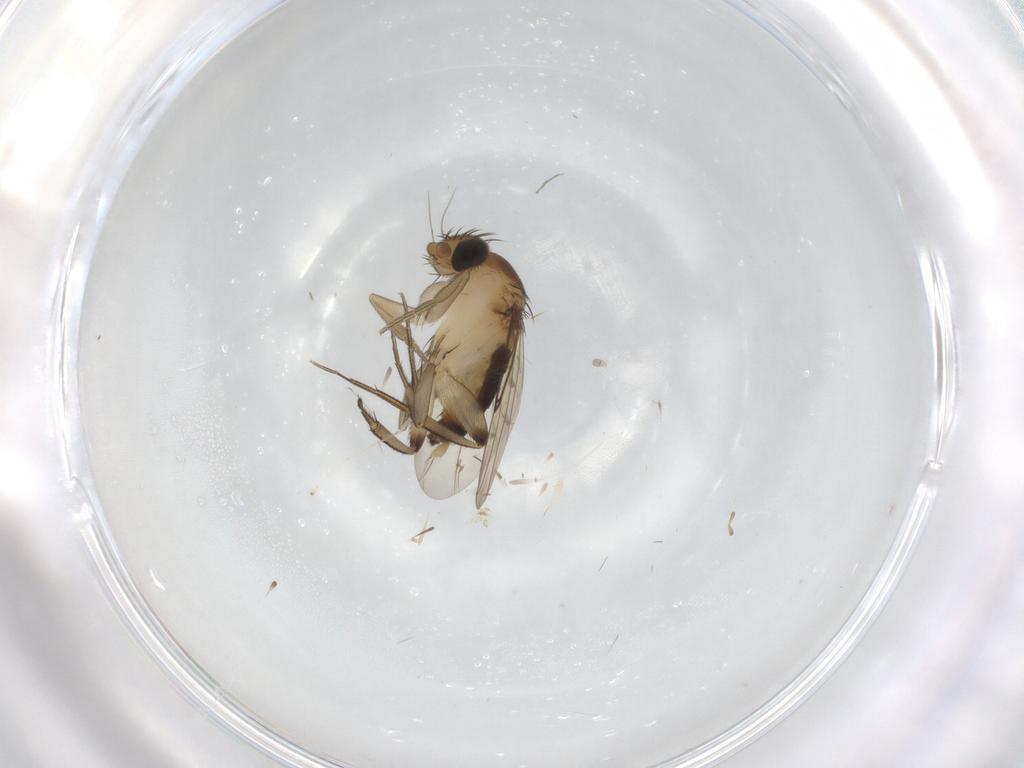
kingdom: Animalia
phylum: Arthropoda
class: Insecta
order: Diptera
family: Phoridae
